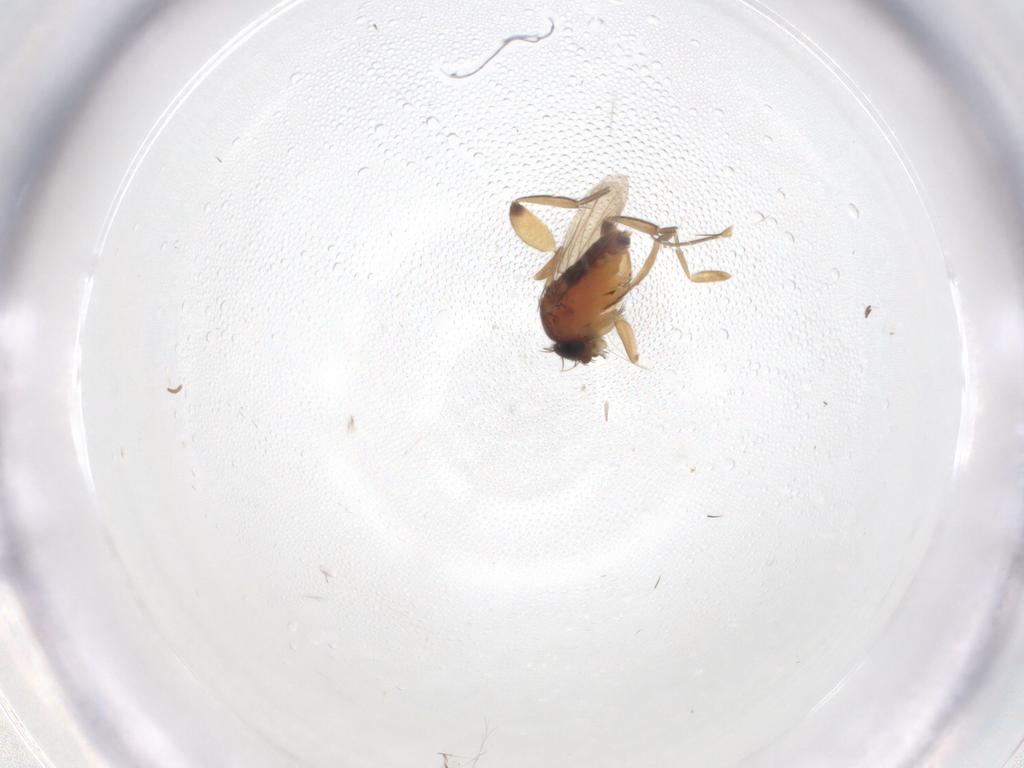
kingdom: Animalia
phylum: Arthropoda
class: Insecta
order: Diptera
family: Phoridae
